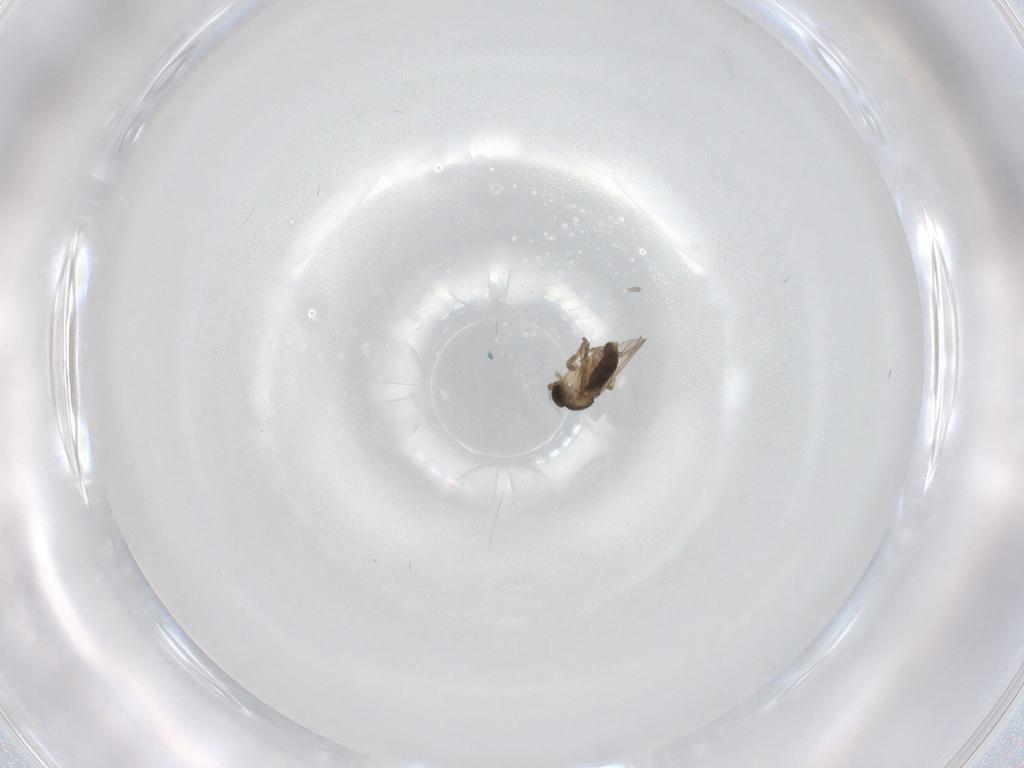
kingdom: Animalia
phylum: Arthropoda
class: Insecta
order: Diptera
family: Phoridae
